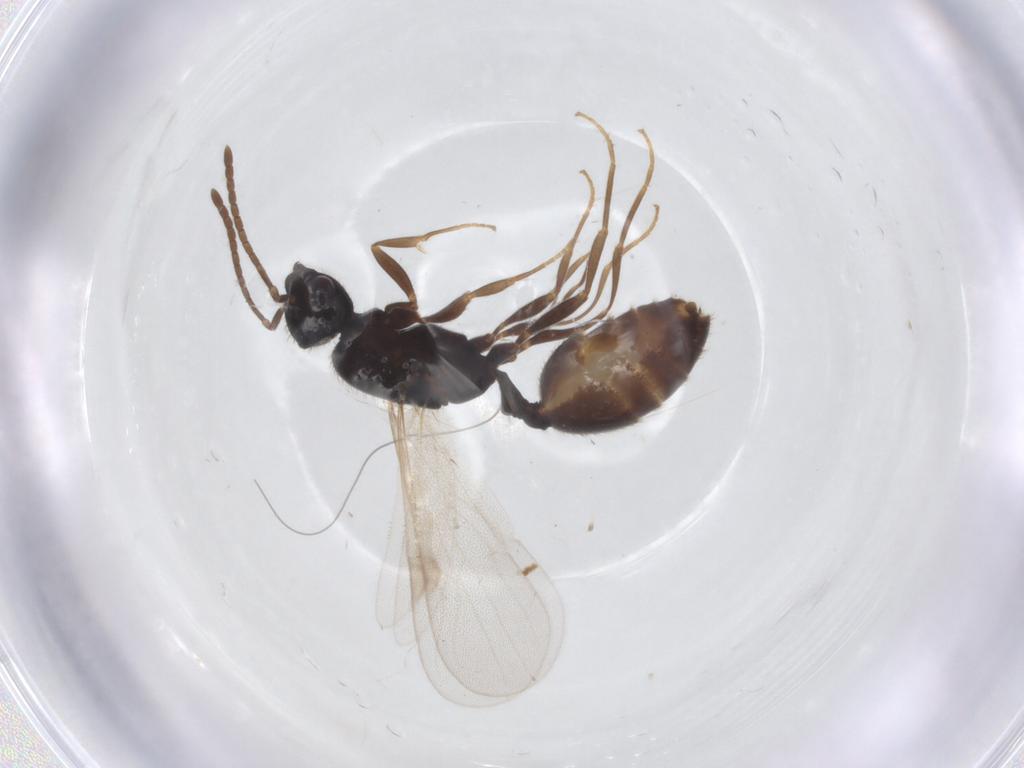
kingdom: Animalia
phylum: Arthropoda
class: Insecta
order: Hymenoptera
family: Formicidae
